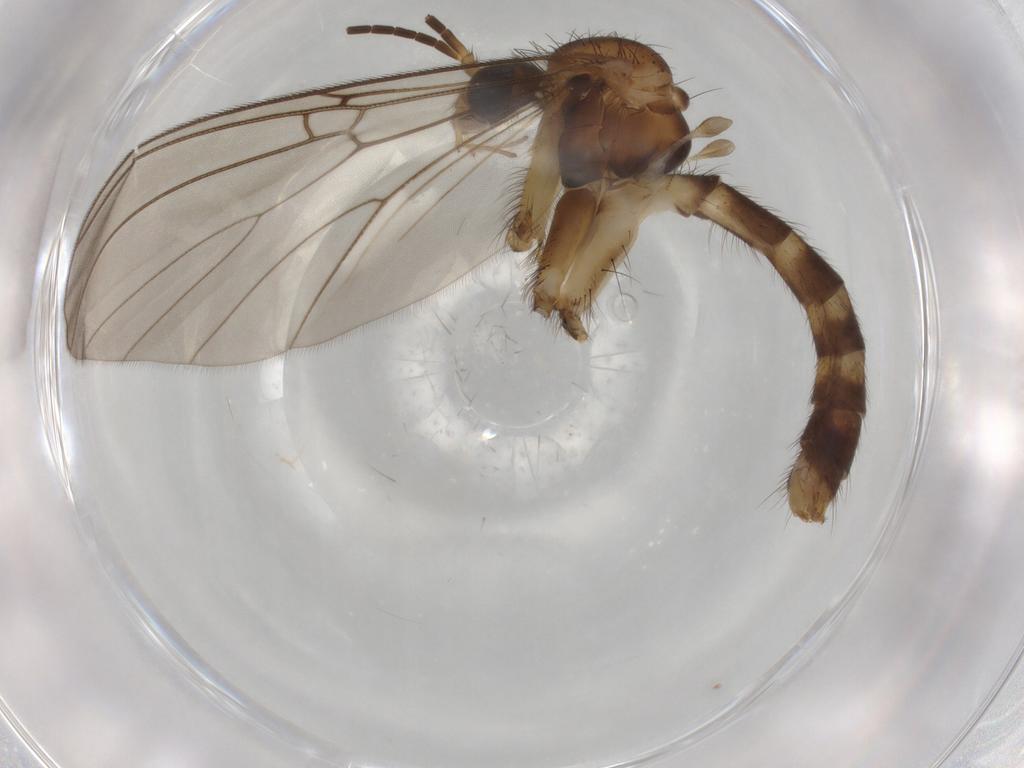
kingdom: Animalia
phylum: Arthropoda
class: Insecta
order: Diptera
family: Mycetophilidae
